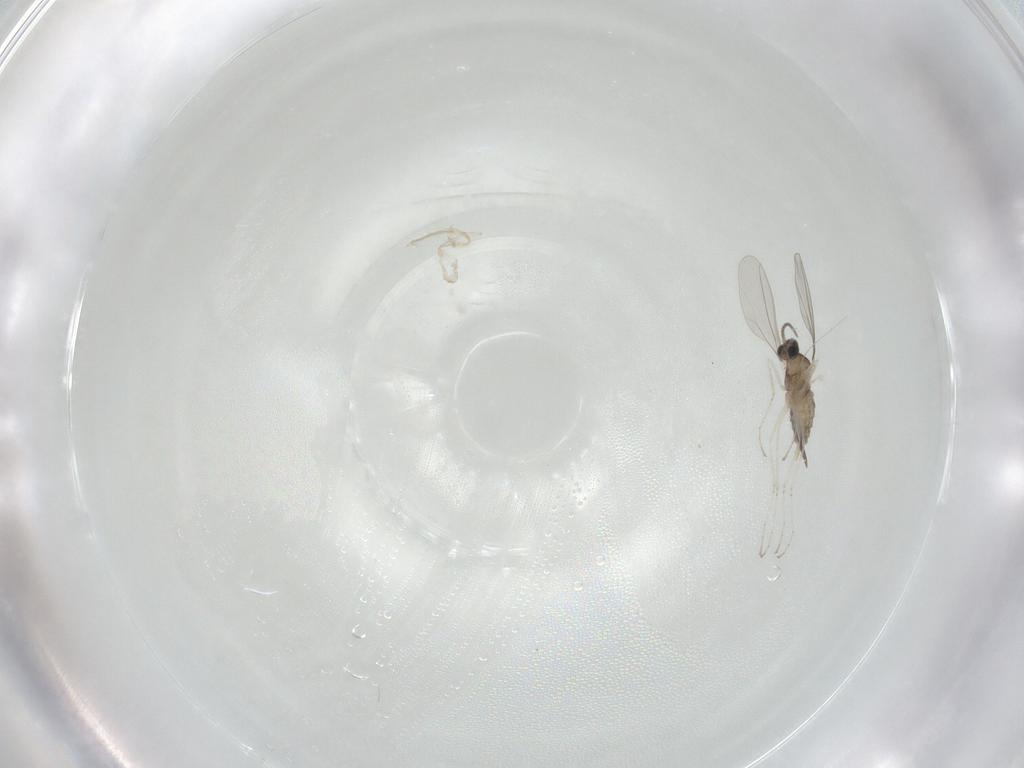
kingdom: Animalia
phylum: Arthropoda
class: Insecta
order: Diptera
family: Cecidomyiidae
